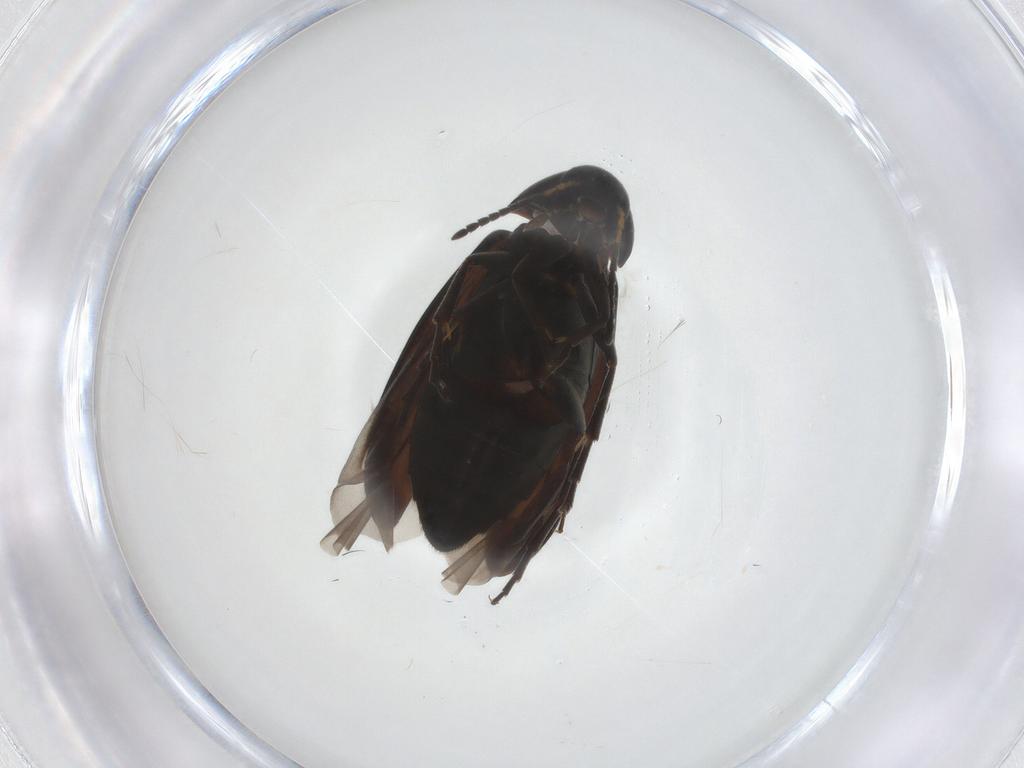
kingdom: Animalia
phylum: Arthropoda
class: Insecta
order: Coleoptera
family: Scraptiidae
